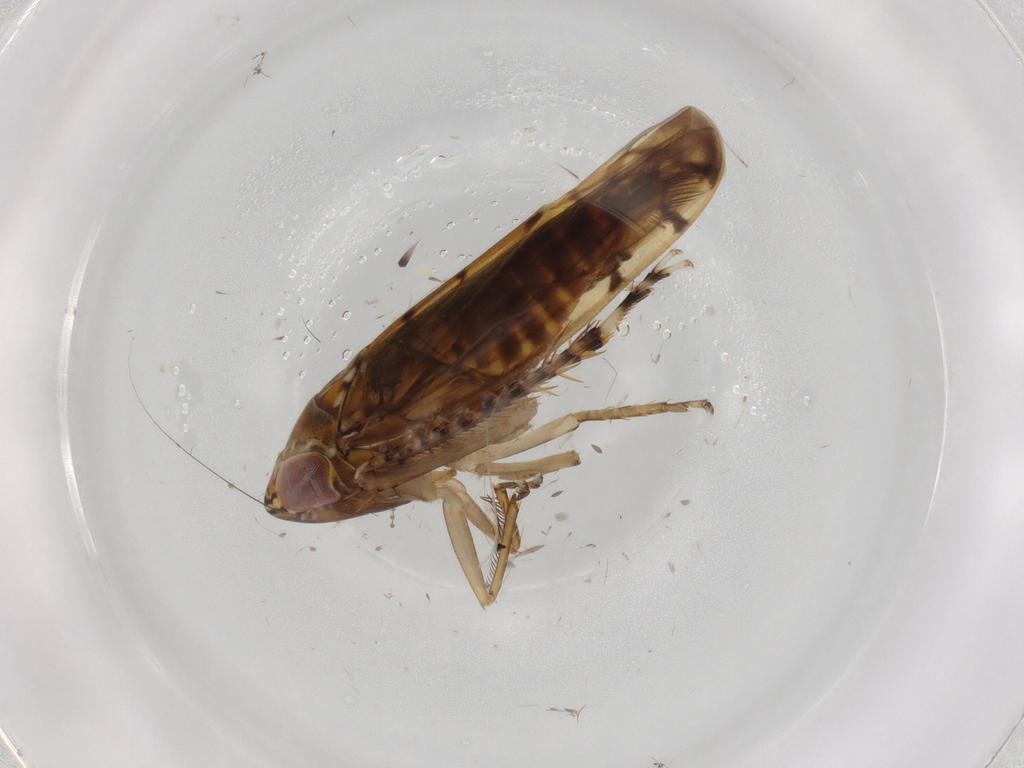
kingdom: Animalia
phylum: Arthropoda
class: Insecta
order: Hemiptera
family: Cicadellidae
